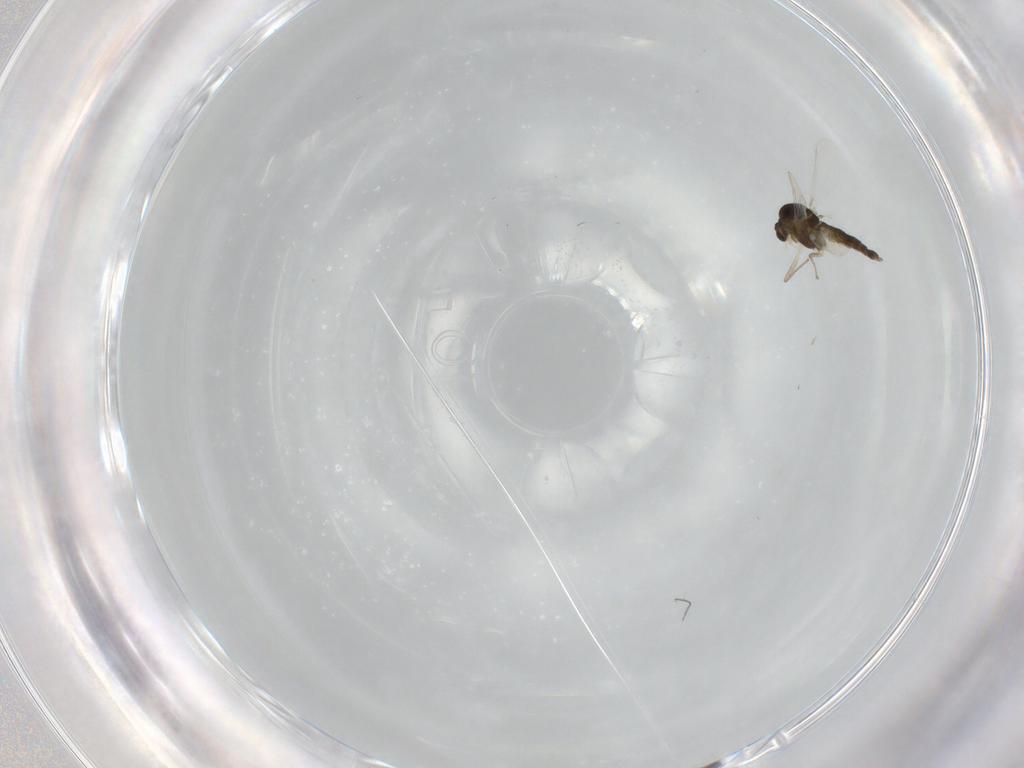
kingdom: Animalia
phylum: Arthropoda
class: Insecta
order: Diptera
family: Chironomidae
